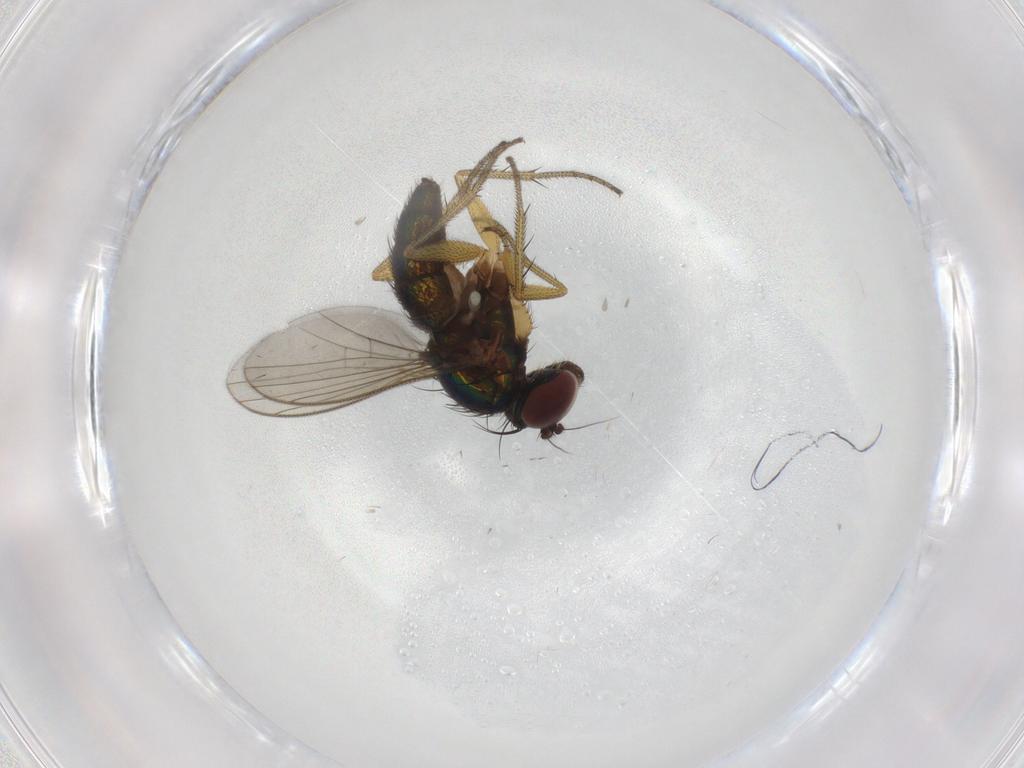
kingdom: Animalia
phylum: Arthropoda
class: Insecta
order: Diptera
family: Dolichopodidae
